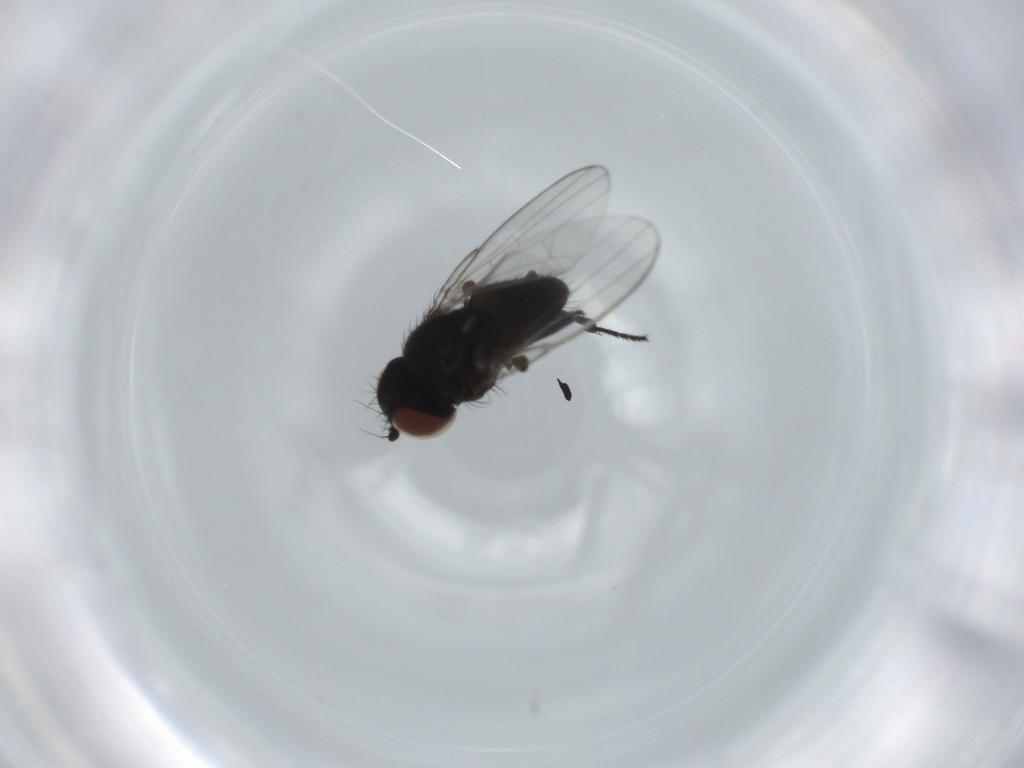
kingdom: Animalia
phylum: Arthropoda
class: Insecta
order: Diptera
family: Milichiidae
